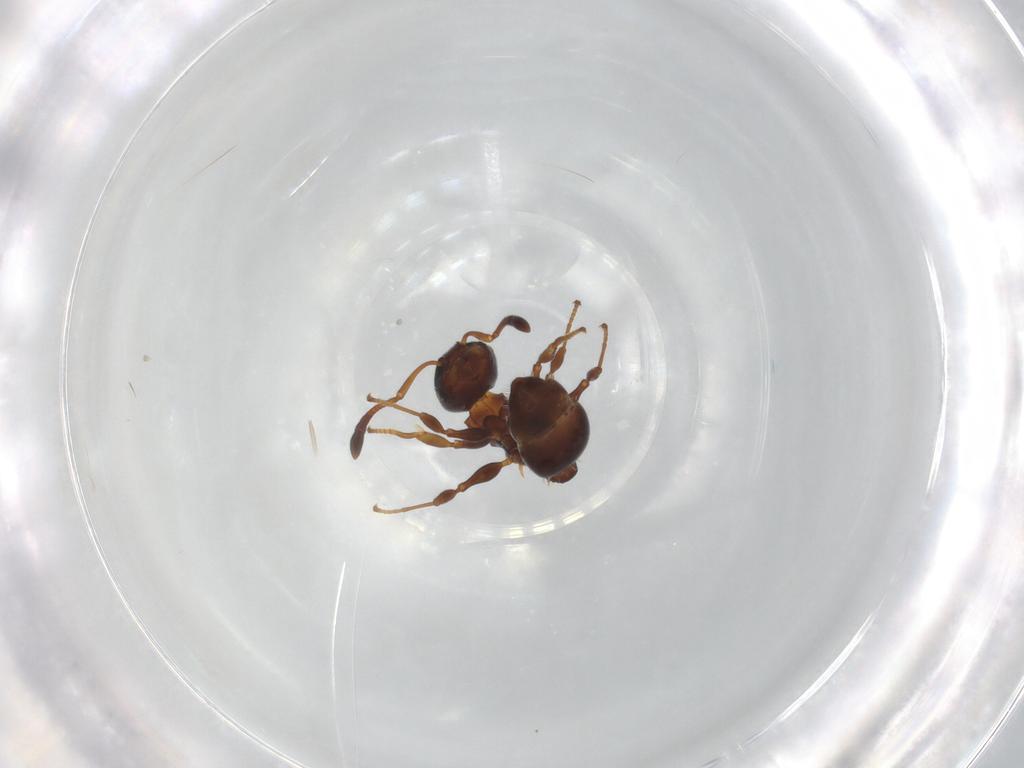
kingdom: Animalia
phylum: Arthropoda
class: Insecta
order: Hymenoptera
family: Formicidae
